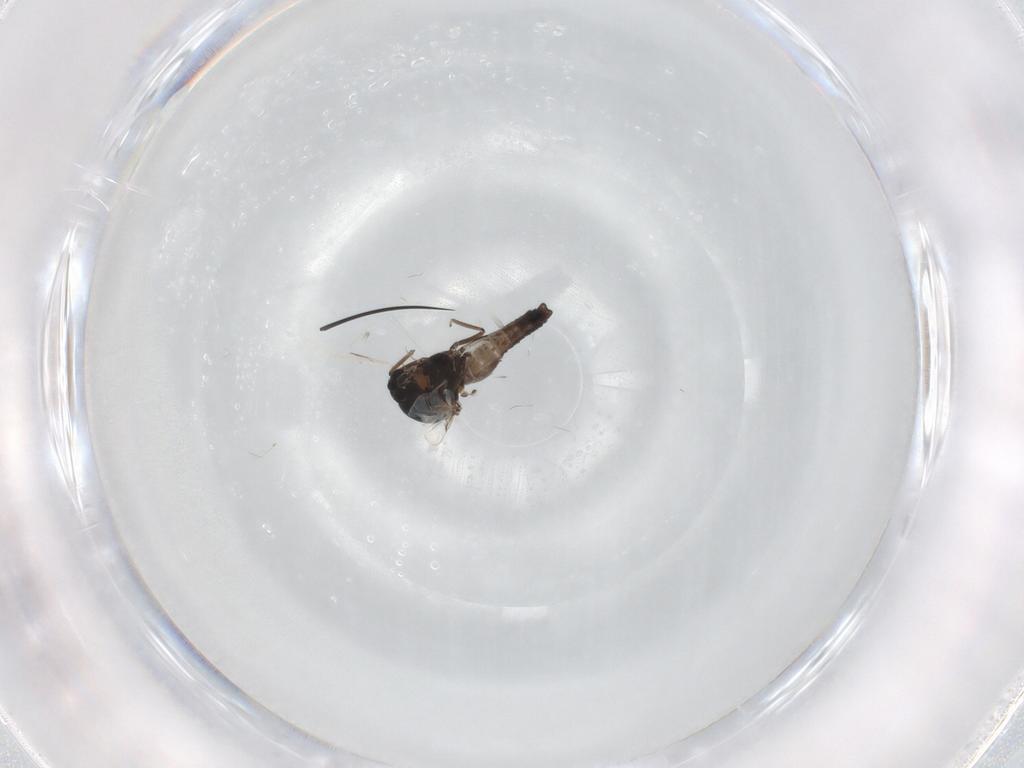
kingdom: Animalia
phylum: Arthropoda
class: Insecta
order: Diptera
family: Ceratopogonidae
